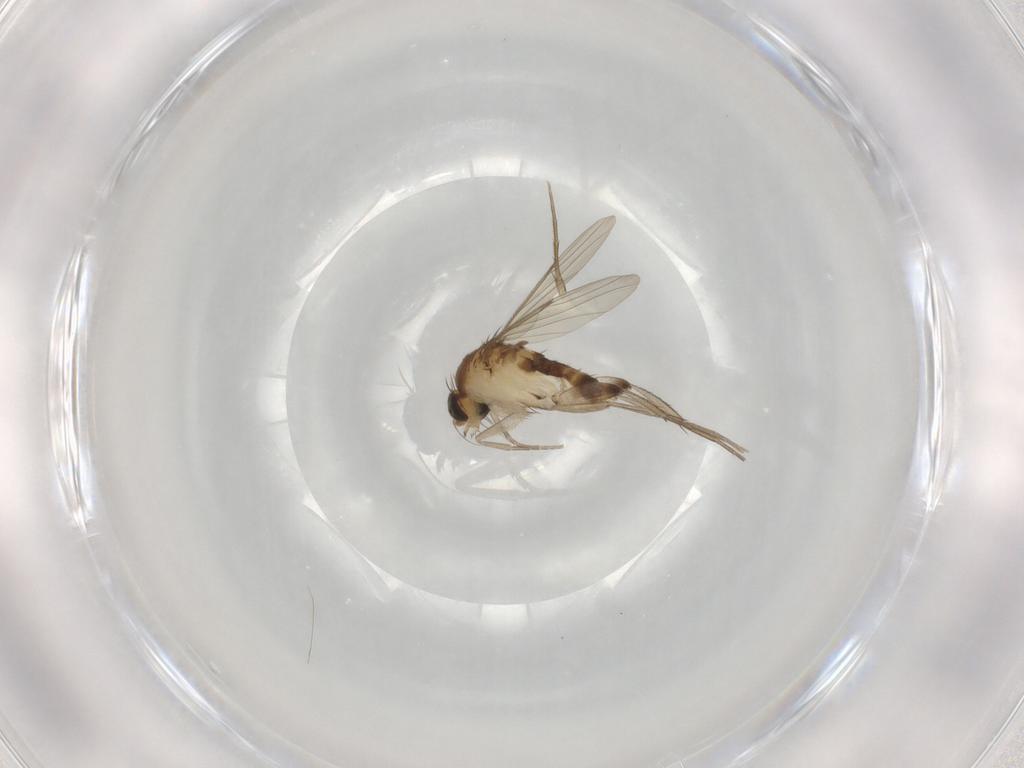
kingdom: Animalia
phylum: Arthropoda
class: Insecta
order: Diptera
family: Phoridae
